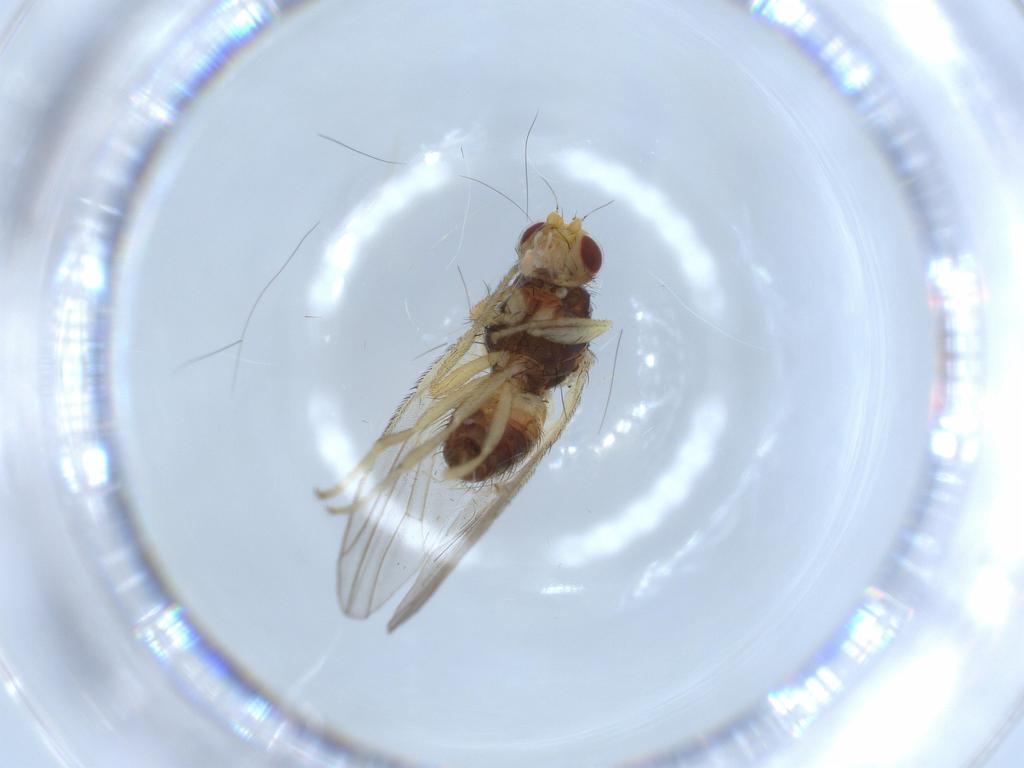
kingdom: Animalia
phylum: Arthropoda
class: Insecta
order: Diptera
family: Heleomyzidae
